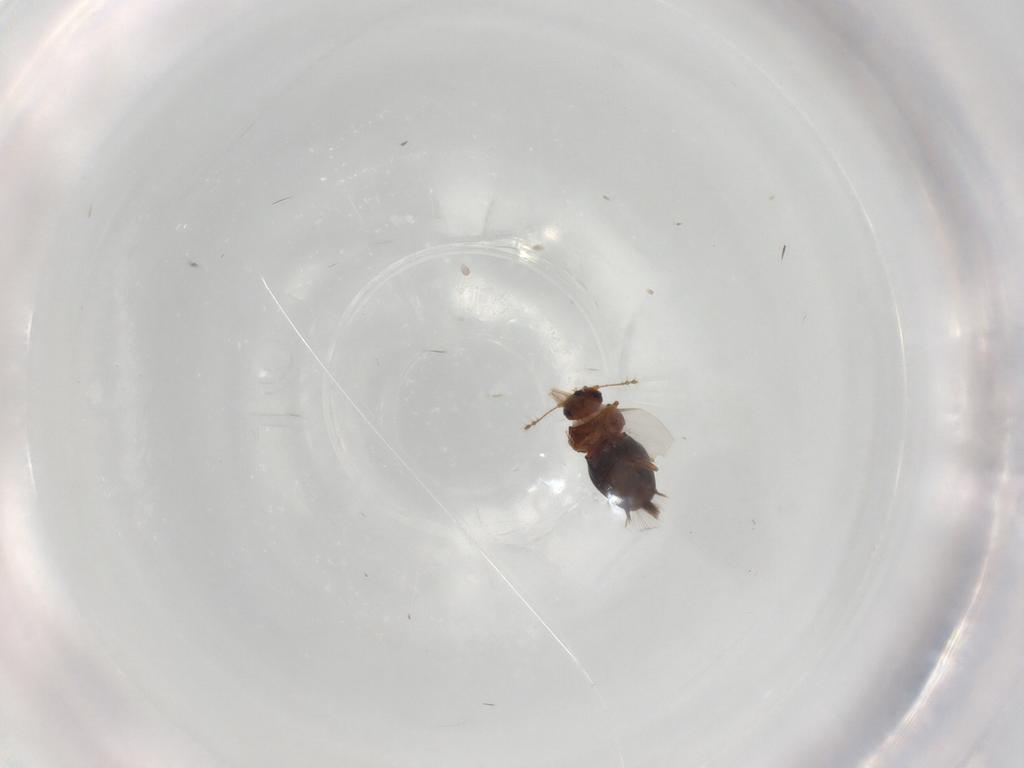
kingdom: Animalia
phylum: Arthropoda
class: Insecta
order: Coleoptera
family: Ptiliidae
